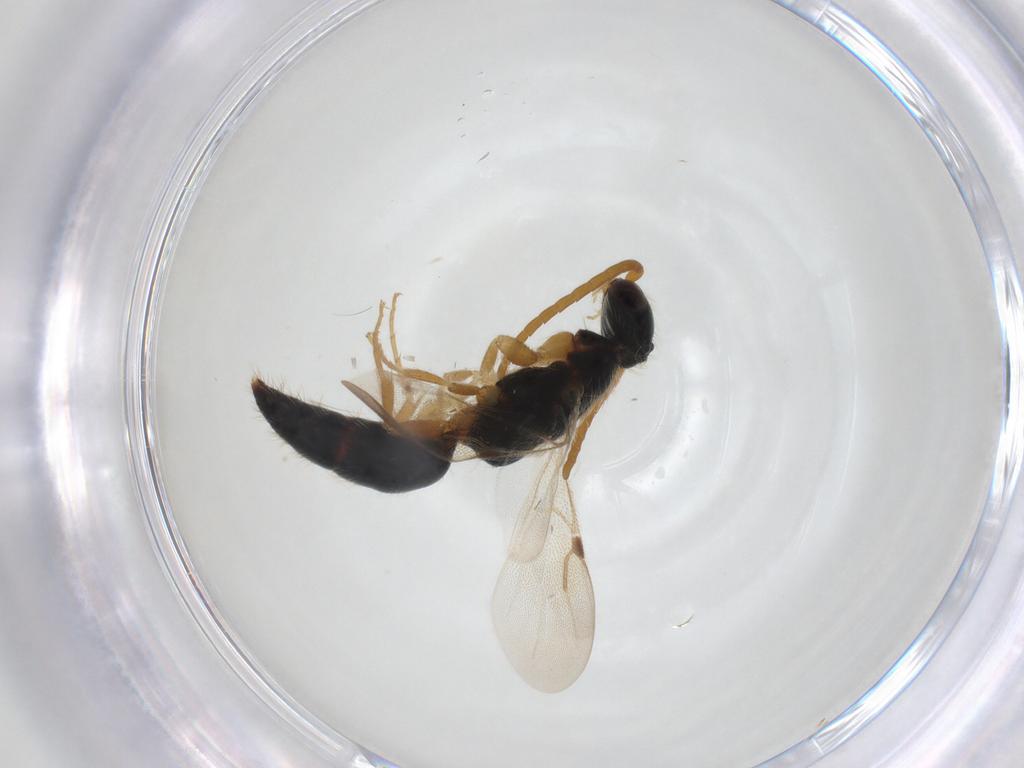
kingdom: Animalia
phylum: Arthropoda
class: Insecta
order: Hymenoptera
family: Bethylidae
